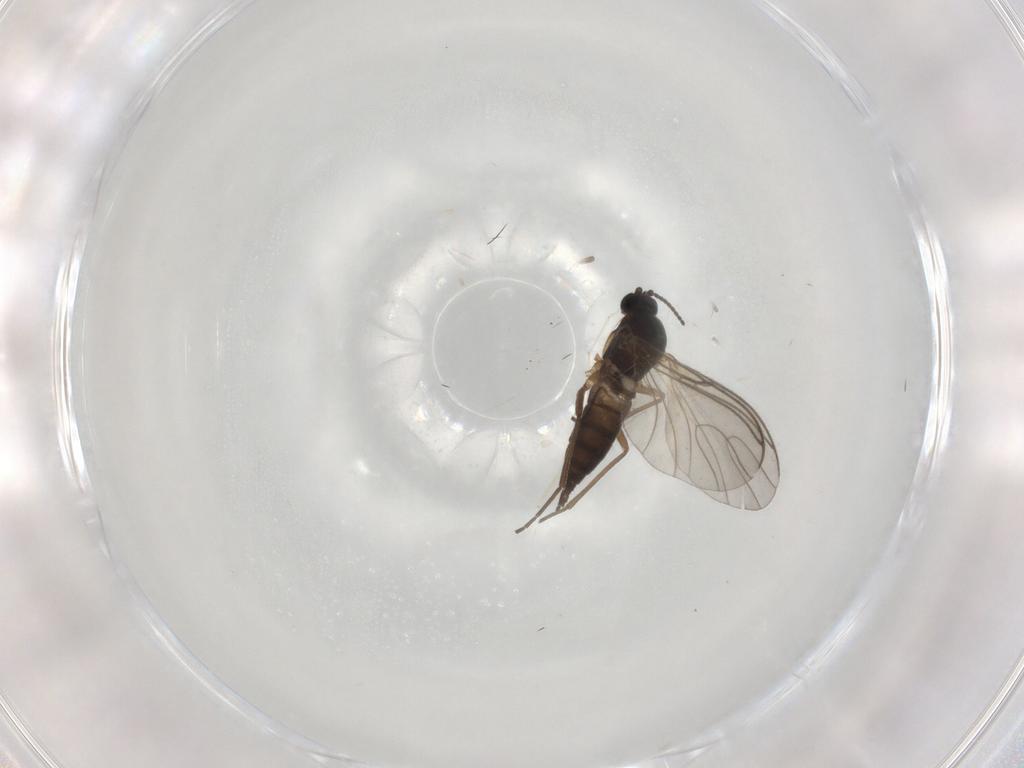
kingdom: Animalia
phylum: Arthropoda
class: Insecta
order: Diptera
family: Sciaridae
